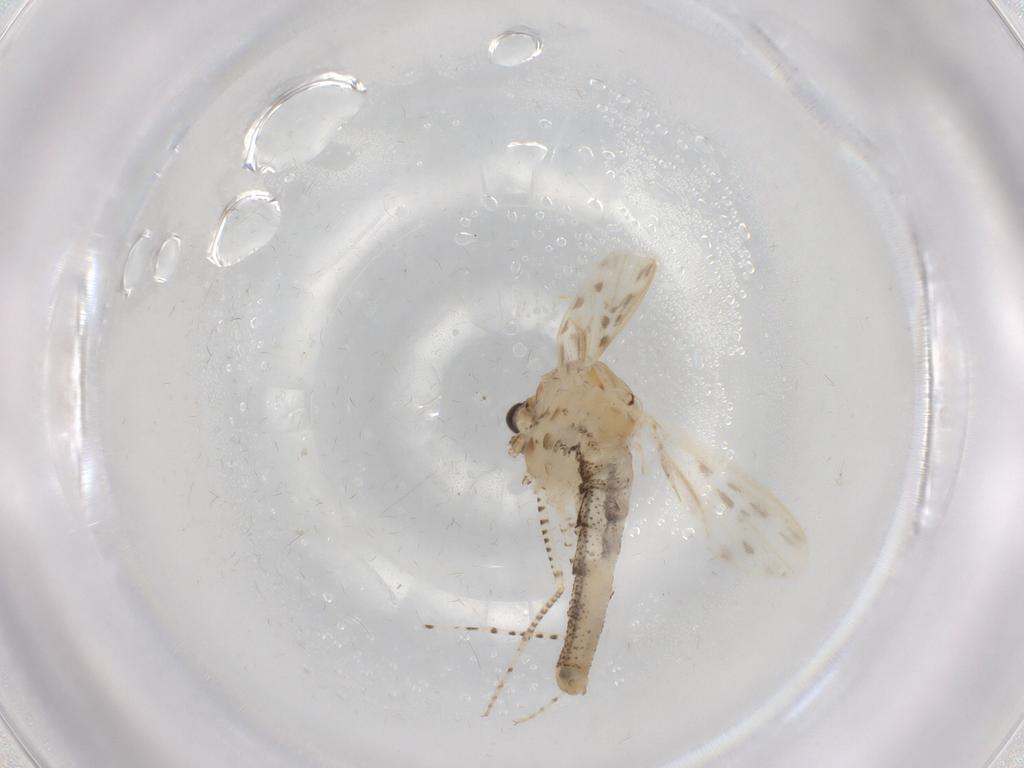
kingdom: Animalia
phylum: Arthropoda
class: Insecta
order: Diptera
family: Chaoboridae
